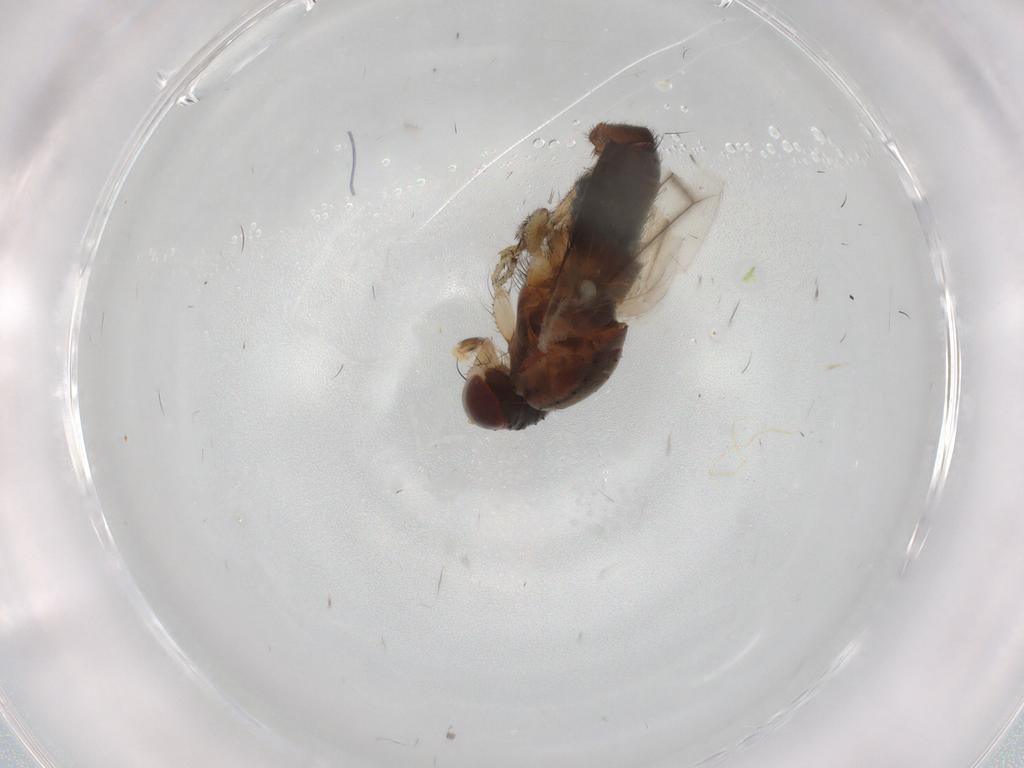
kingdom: Animalia
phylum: Arthropoda
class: Insecta
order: Diptera
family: Heleomyzidae
